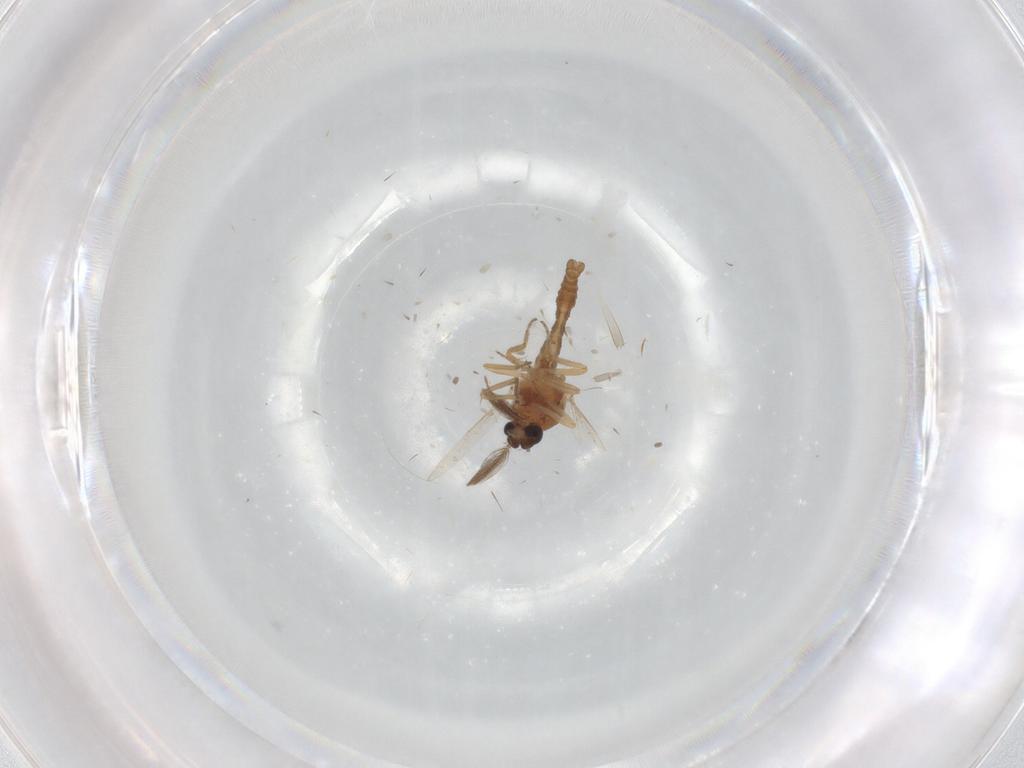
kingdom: Animalia
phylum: Arthropoda
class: Insecta
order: Diptera
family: Ceratopogonidae
